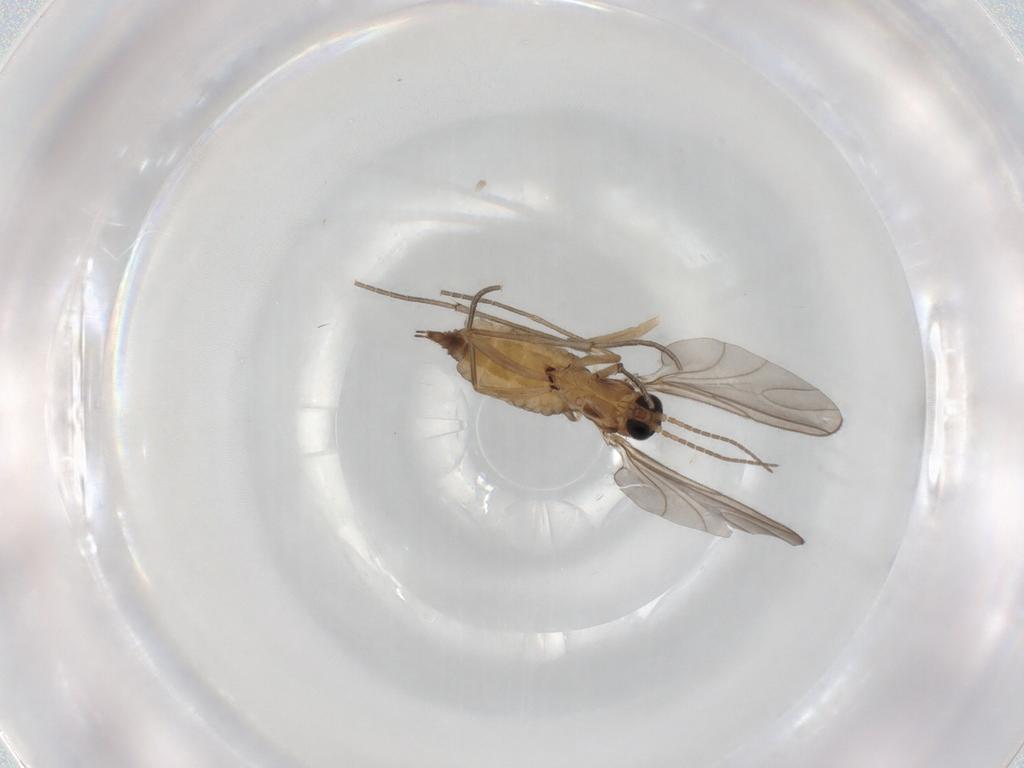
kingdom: Animalia
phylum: Arthropoda
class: Insecta
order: Diptera
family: Sciaridae
